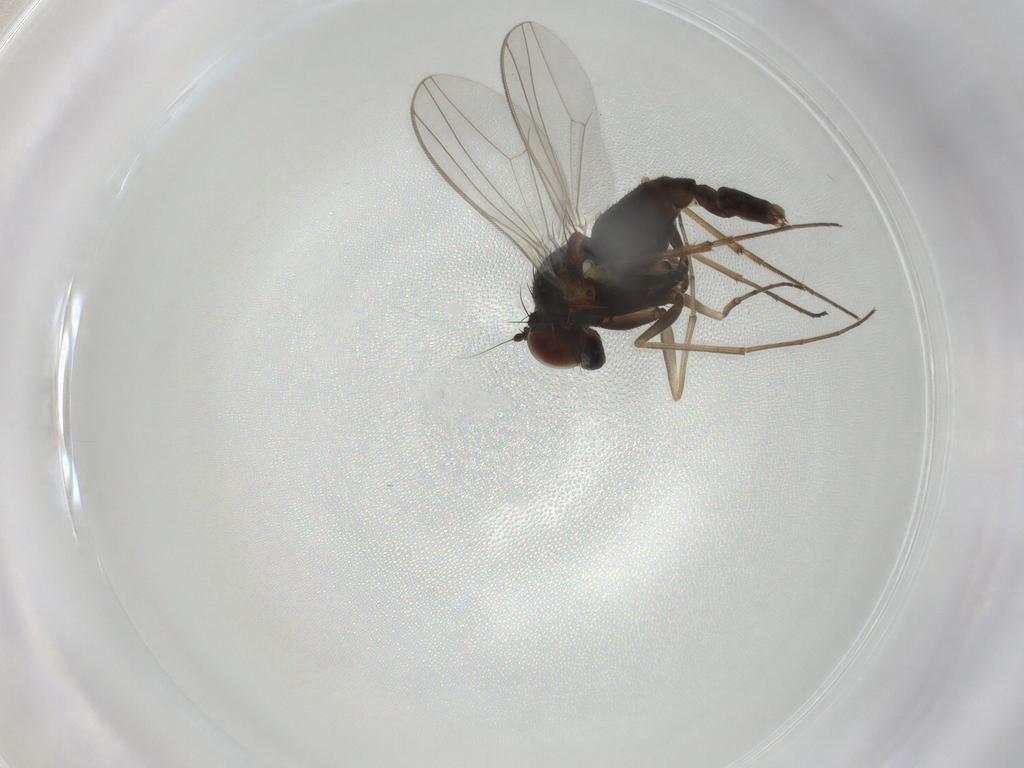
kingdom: Animalia
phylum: Arthropoda
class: Insecta
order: Diptera
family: Dolichopodidae
